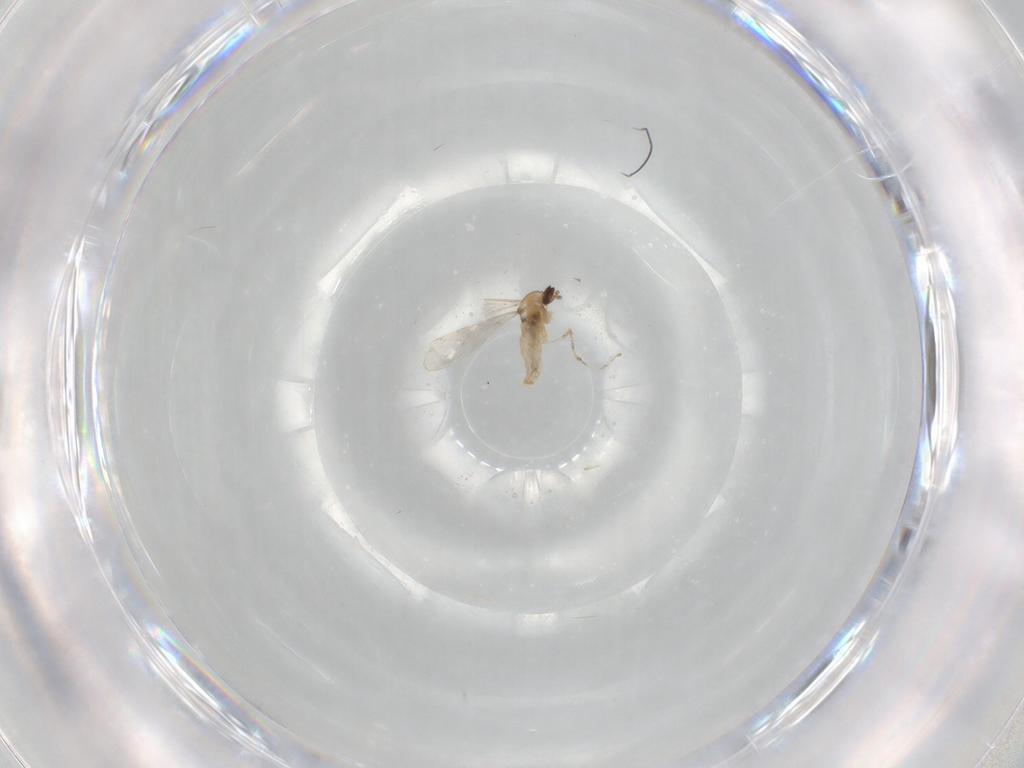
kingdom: Animalia
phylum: Arthropoda
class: Insecta
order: Diptera
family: Cecidomyiidae
